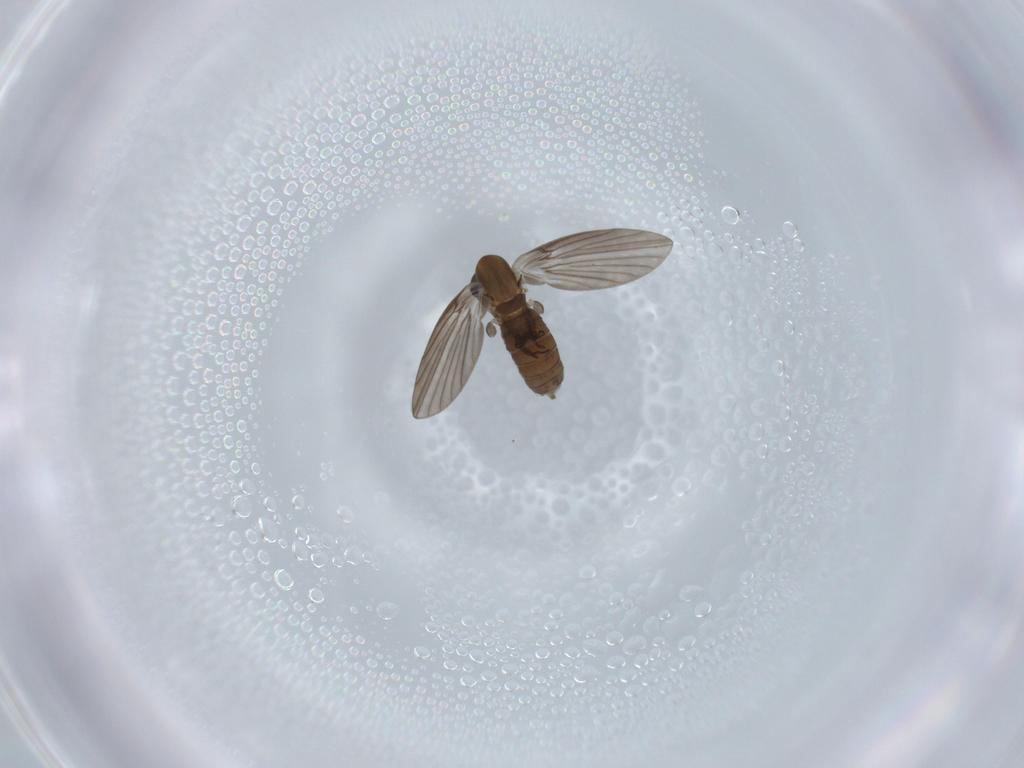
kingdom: Animalia
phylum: Arthropoda
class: Insecta
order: Diptera
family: Psychodidae
